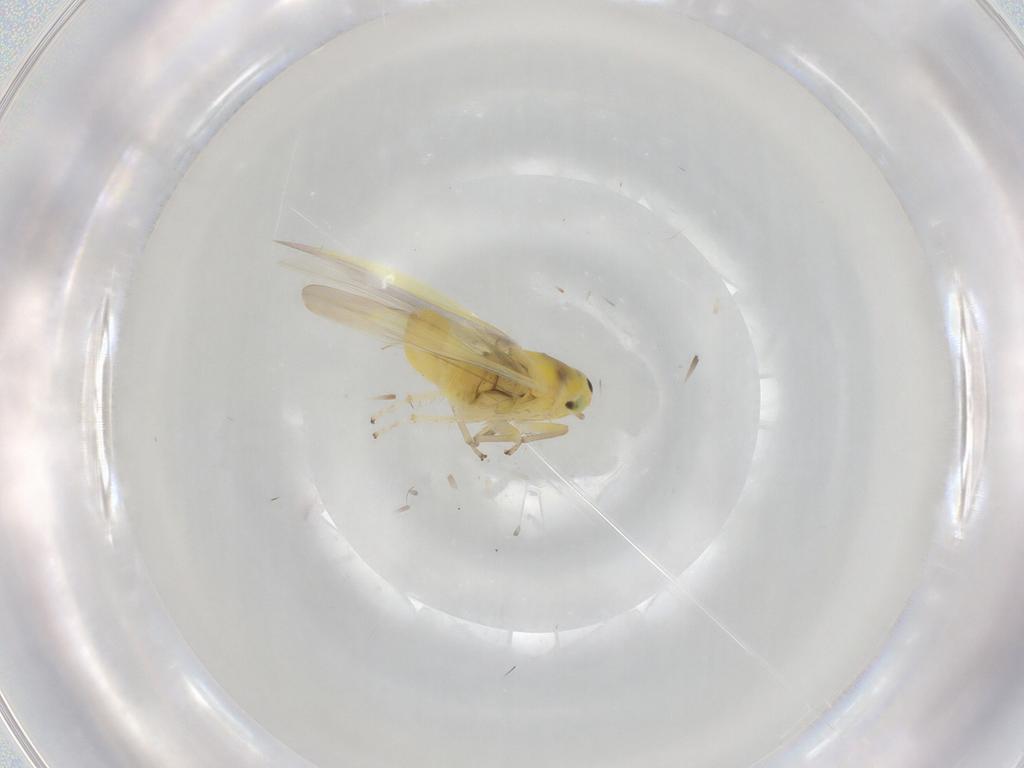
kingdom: Animalia
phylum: Arthropoda
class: Insecta
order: Hemiptera
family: Cicadellidae
